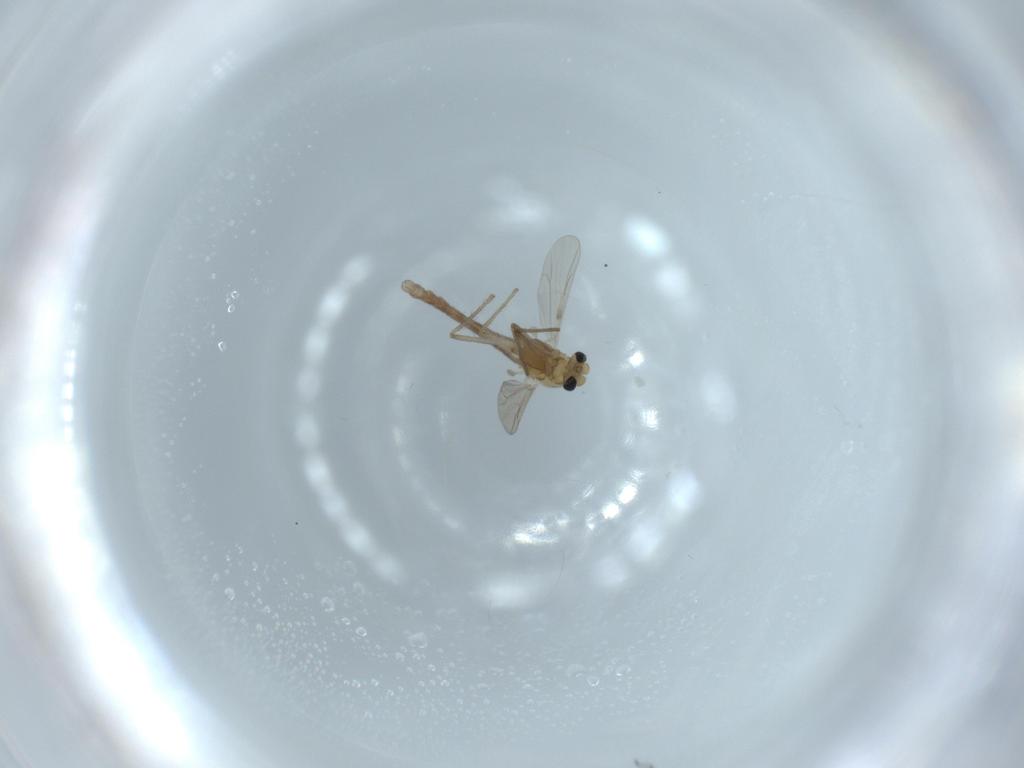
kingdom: Animalia
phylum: Arthropoda
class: Insecta
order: Diptera
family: Chironomidae
